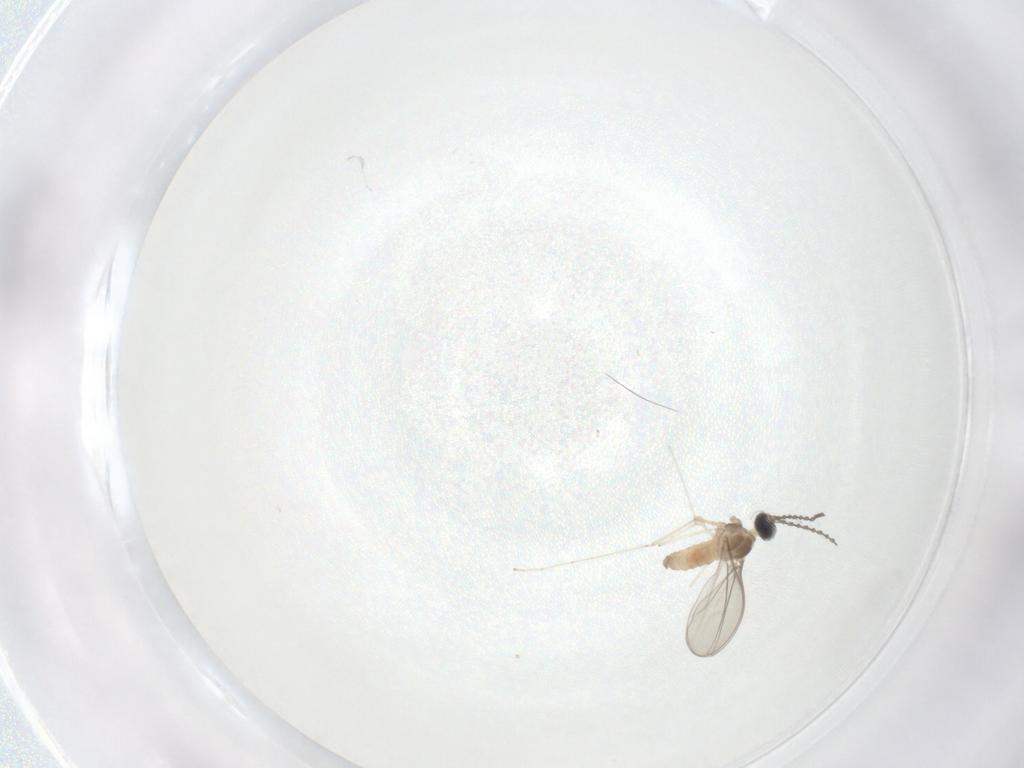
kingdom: Animalia
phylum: Arthropoda
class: Insecta
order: Diptera
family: Cecidomyiidae
